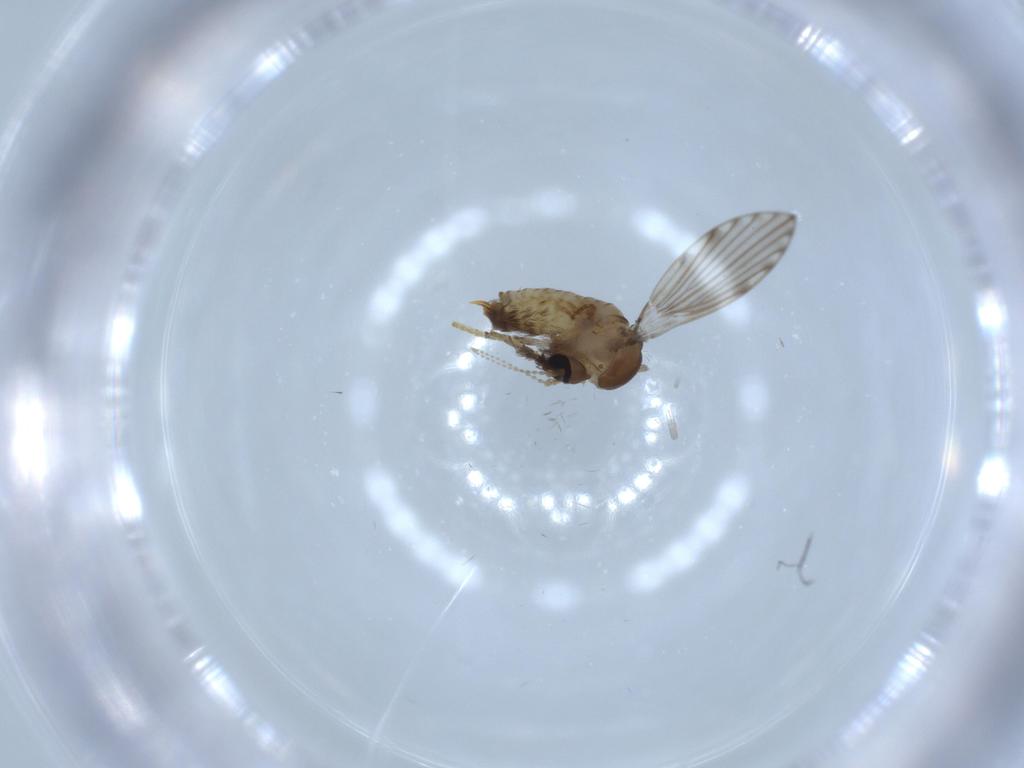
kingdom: Animalia
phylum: Arthropoda
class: Insecta
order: Diptera
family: Psychodidae
